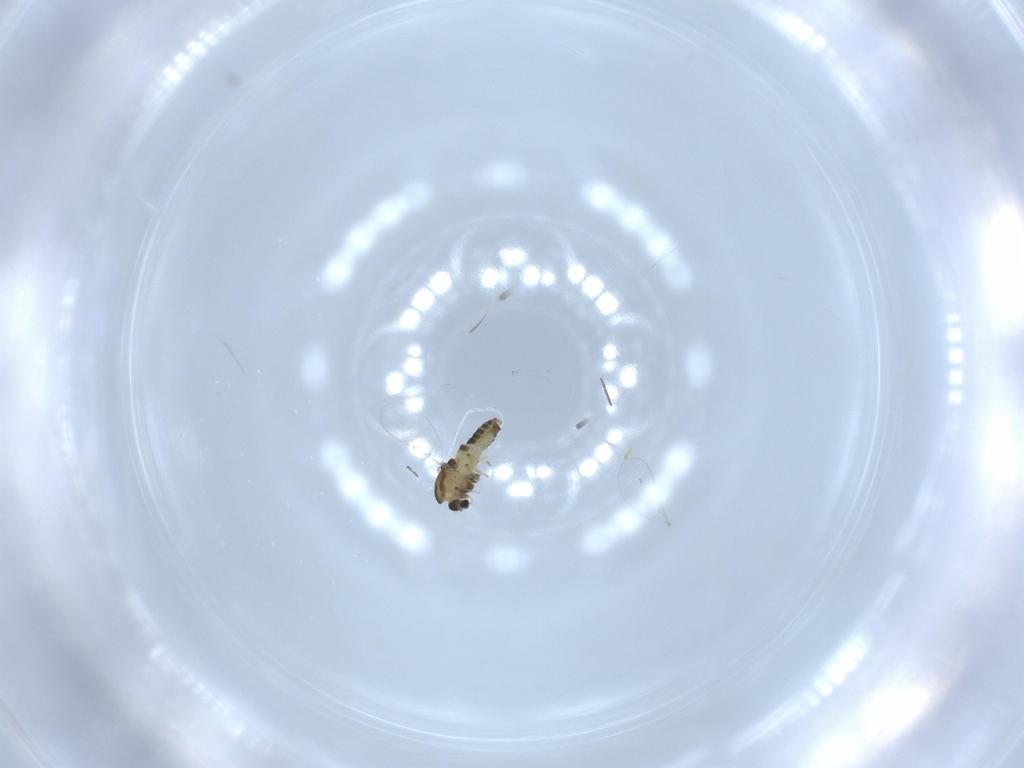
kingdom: Animalia
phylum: Arthropoda
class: Insecta
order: Diptera
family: Chironomidae
